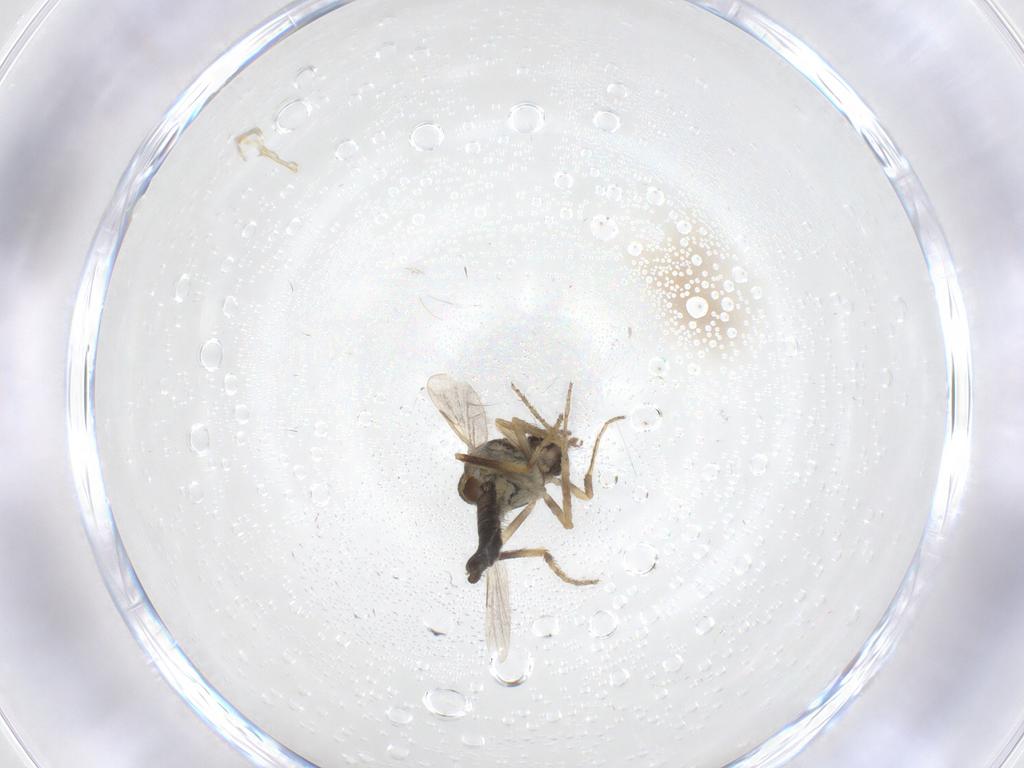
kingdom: Animalia
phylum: Arthropoda
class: Insecta
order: Diptera
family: Ceratopogonidae
